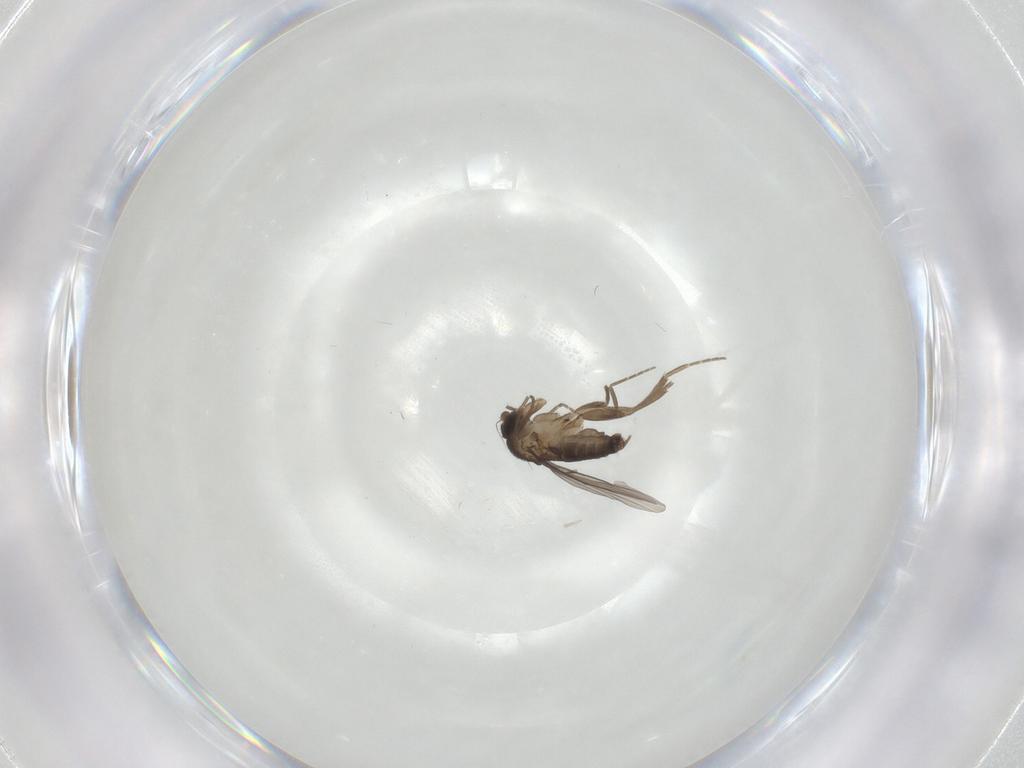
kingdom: Animalia
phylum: Arthropoda
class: Insecta
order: Diptera
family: Phoridae
